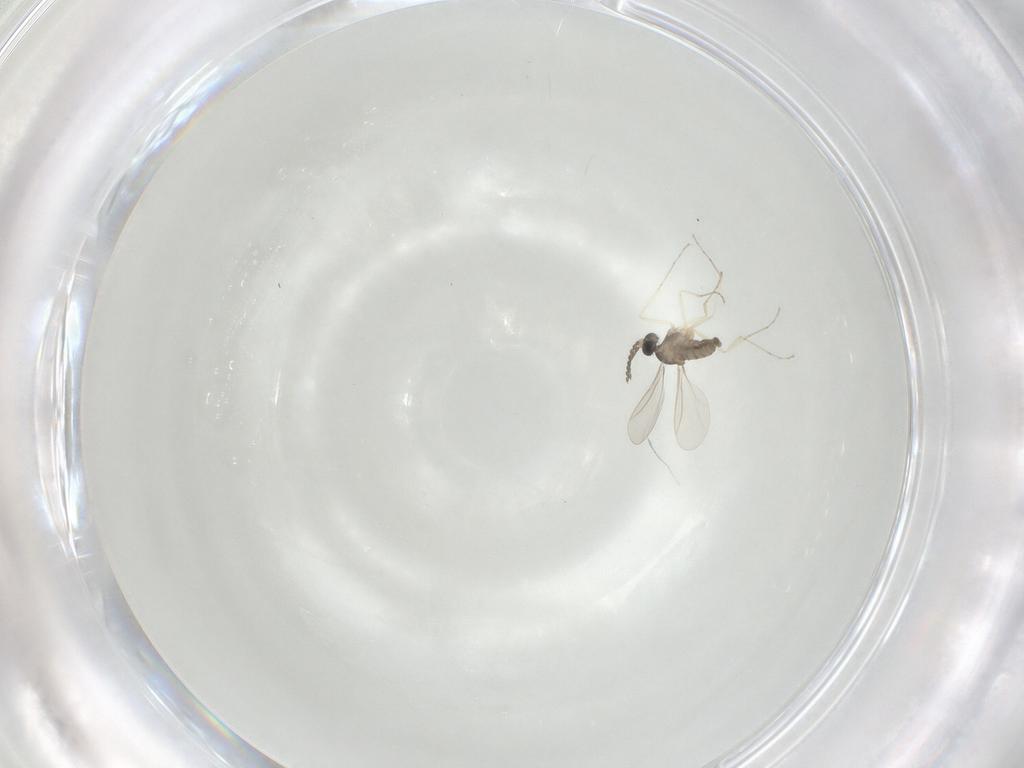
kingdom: Animalia
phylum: Arthropoda
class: Insecta
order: Diptera
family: Cecidomyiidae
